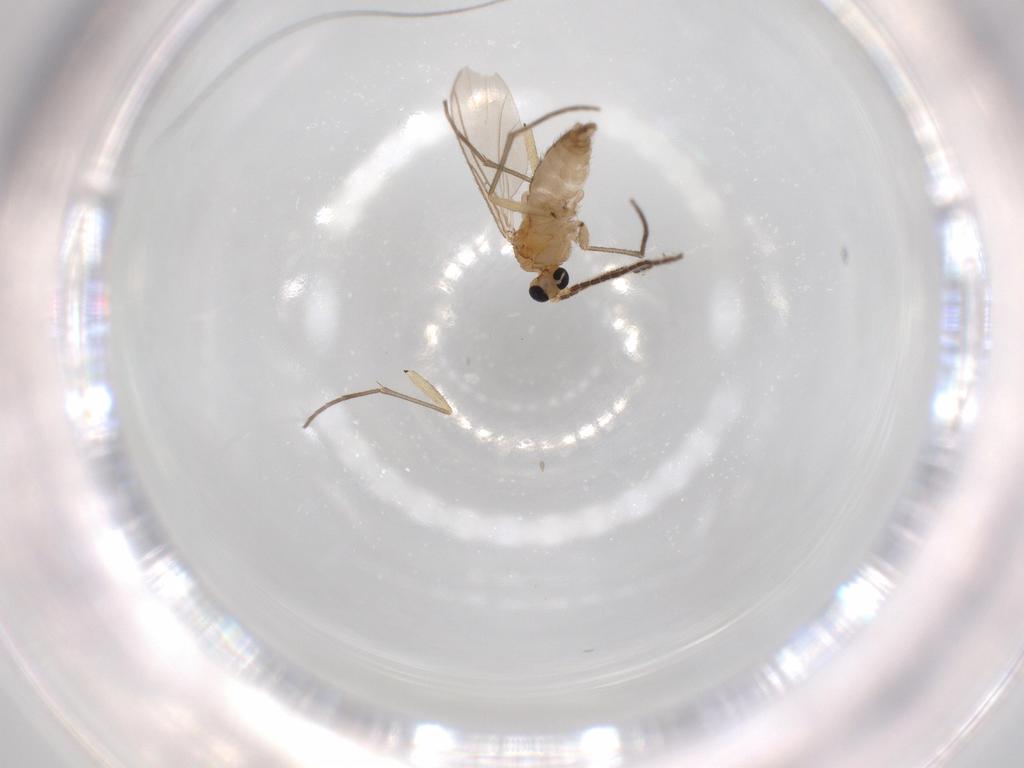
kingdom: Animalia
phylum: Arthropoda
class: Insecta
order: Diptera
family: Sciaridae
